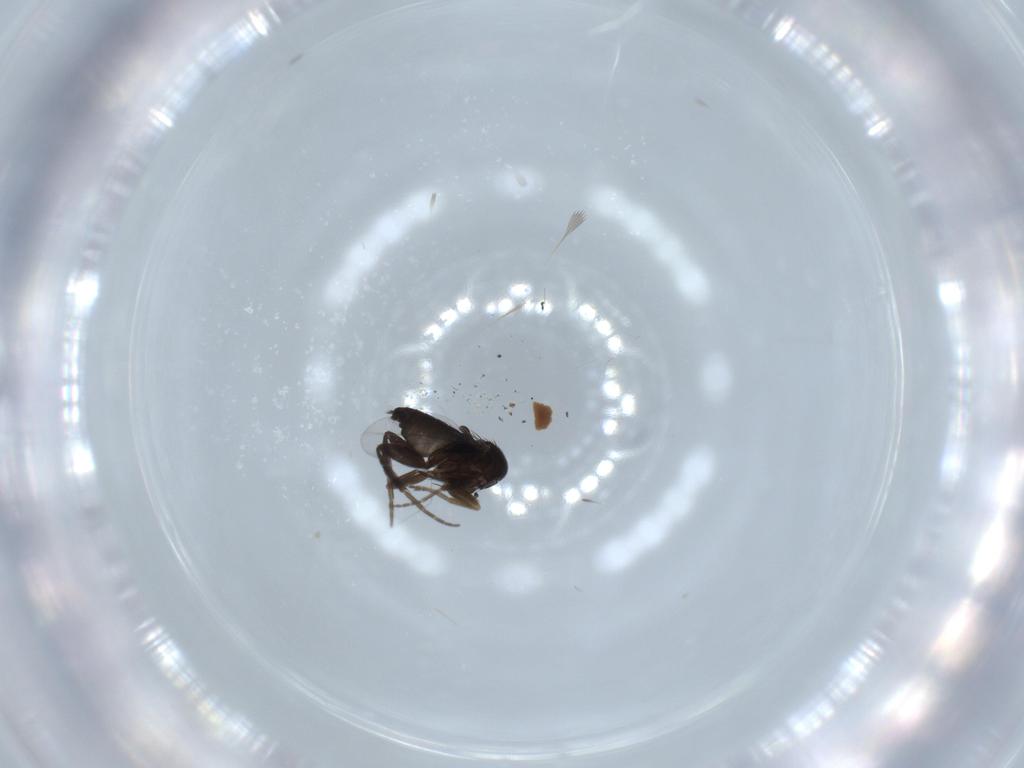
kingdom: Animalia
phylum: Arthropoda
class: Insecta
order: Diptera
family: Phoridae
